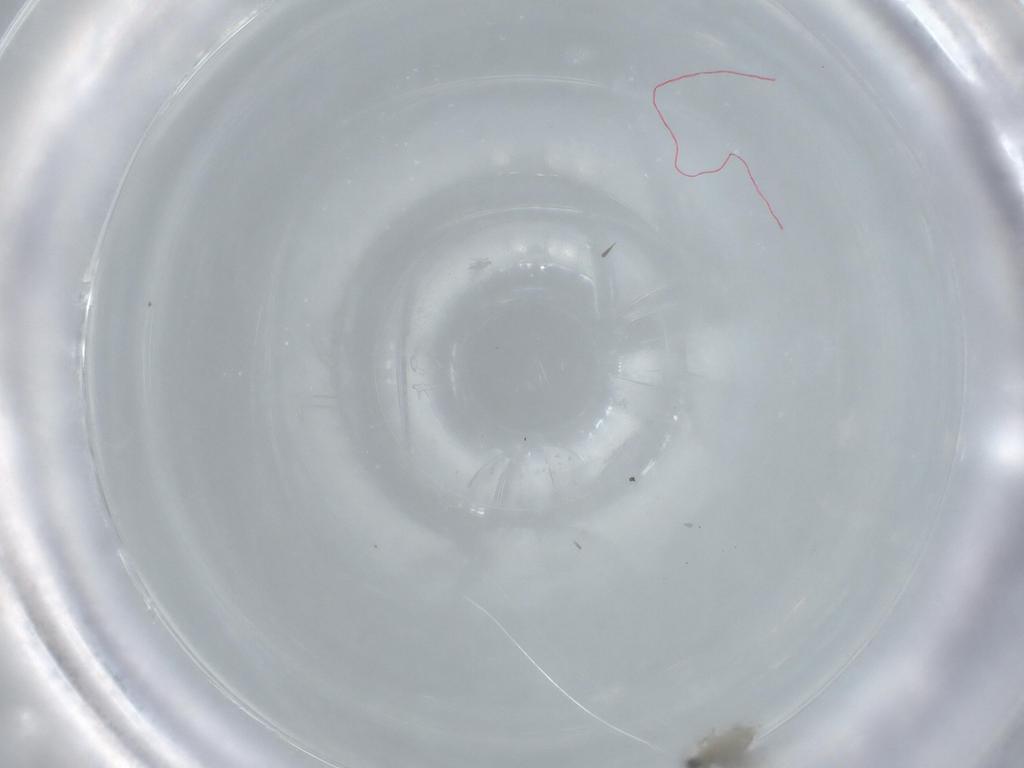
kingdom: Animalia
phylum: Arthropoda
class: Insecta
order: Diptera
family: Cecidomyiidae
